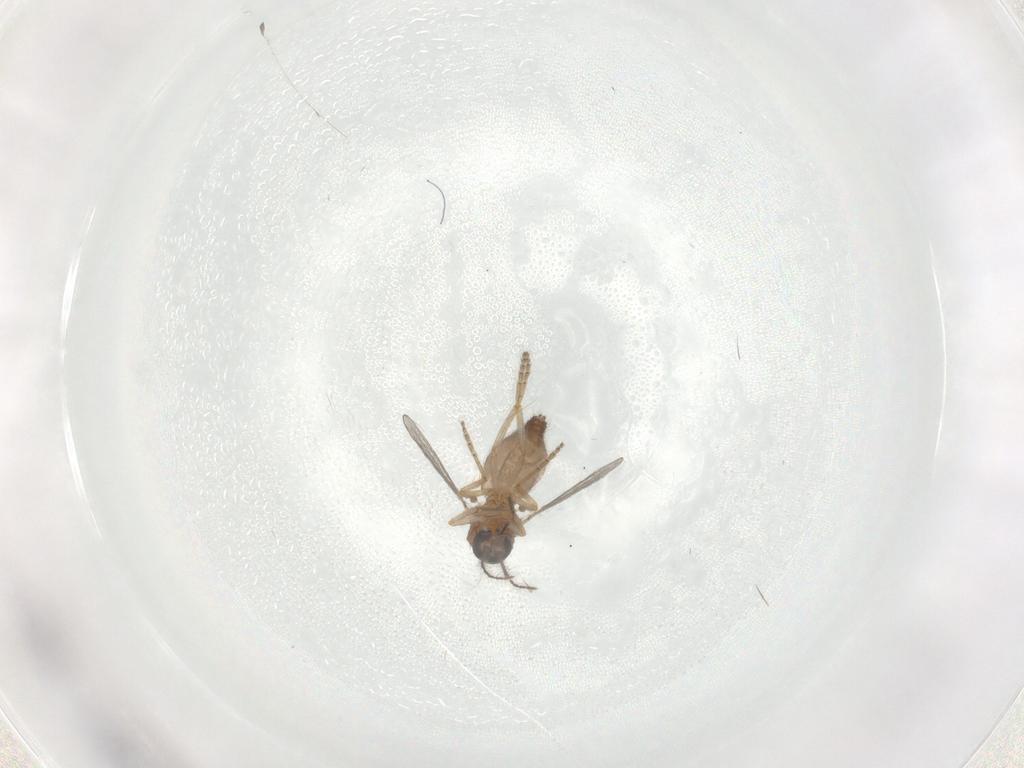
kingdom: Animalia
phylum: Arthropoda
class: Insecta
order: Diptera
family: Ceratopogonidae
